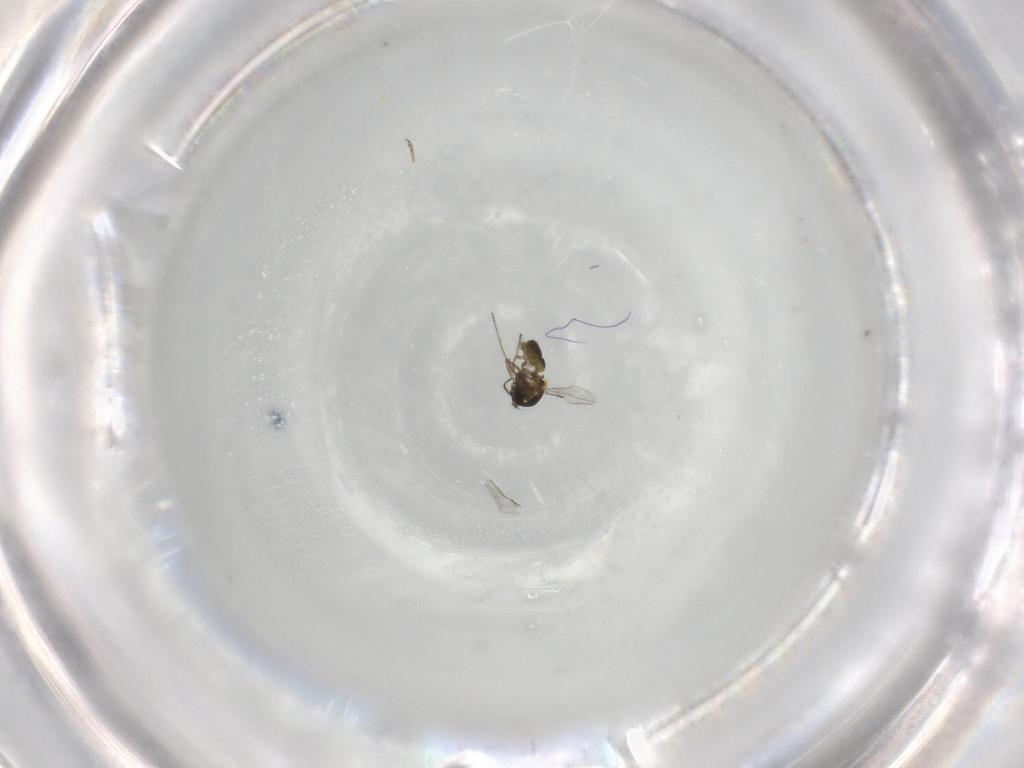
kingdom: Animalia
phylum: Arthropoda
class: Insecta
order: Diptera
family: Ceratopogonidae
